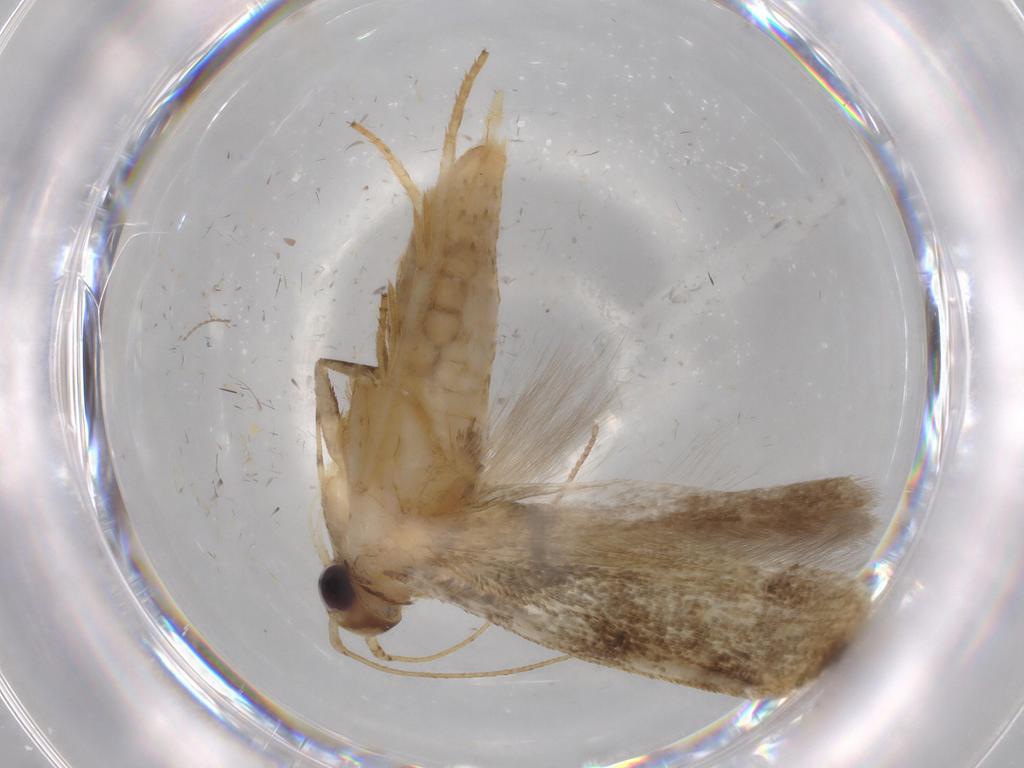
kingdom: Animalia
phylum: Arthropoda
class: Insecta
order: Lepidoptera
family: Gelechiidae
